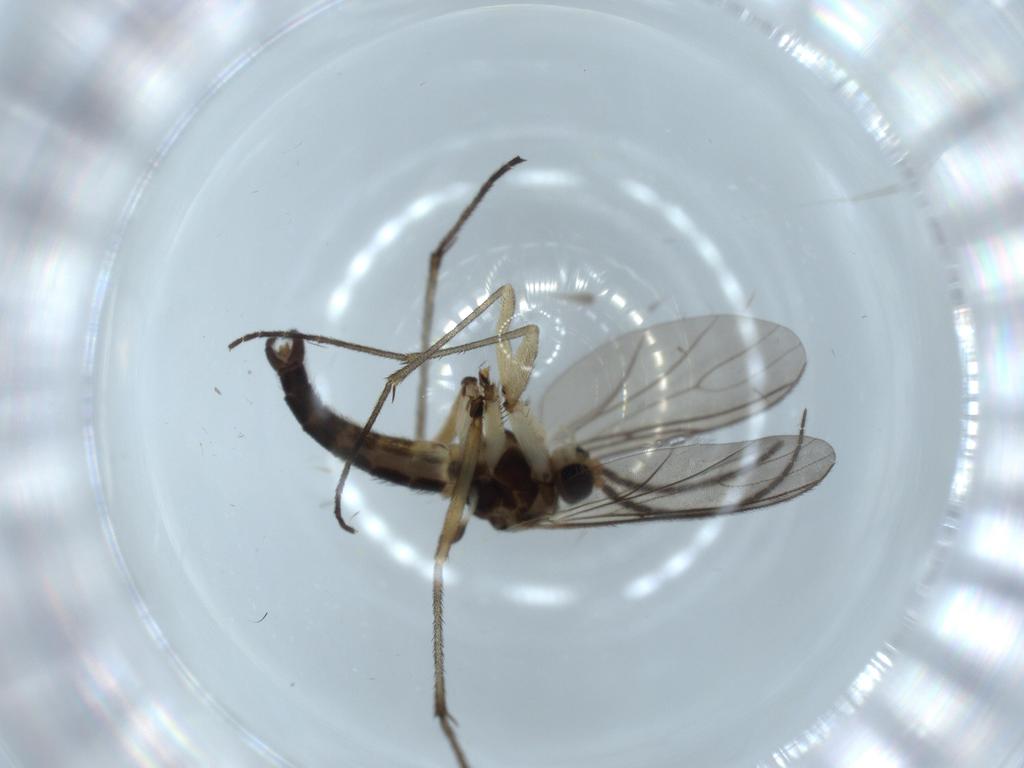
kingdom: Animalia
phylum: Arthropoda
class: Insecta
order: Diptera
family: Sciaridae
